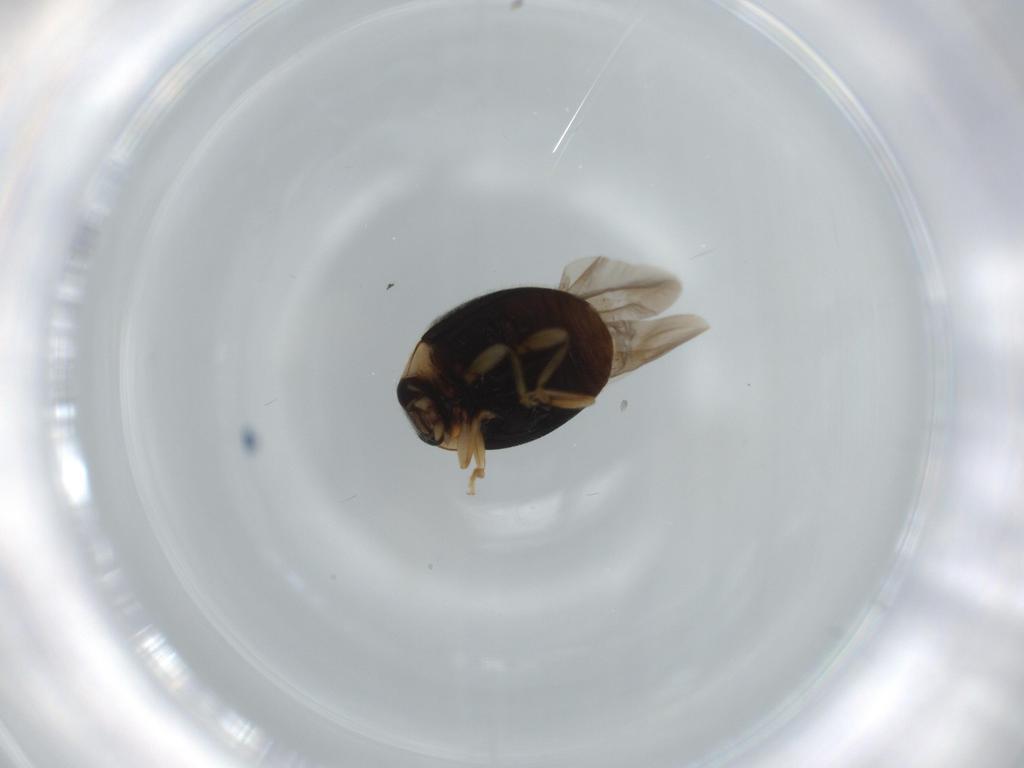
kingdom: Animalia
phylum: Arthropoda
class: Insecta
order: Coleoptera
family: Coccinellidae
